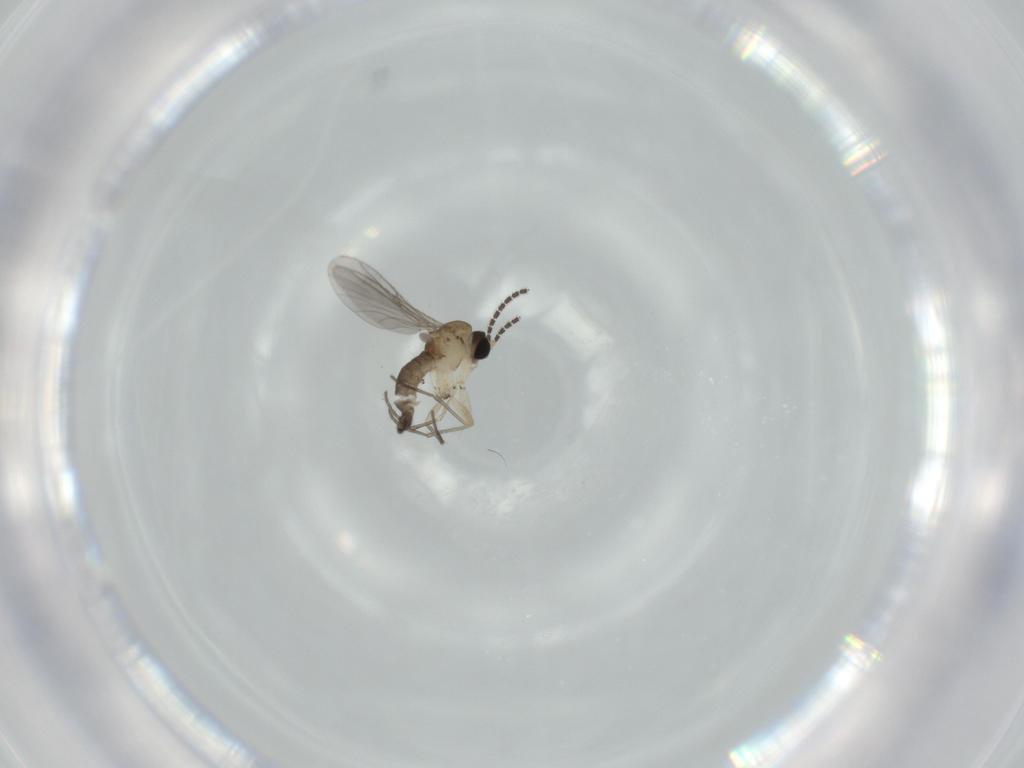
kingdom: Animalia
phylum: Arthropoda
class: Insecta
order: Diptera
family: Sciaridae
